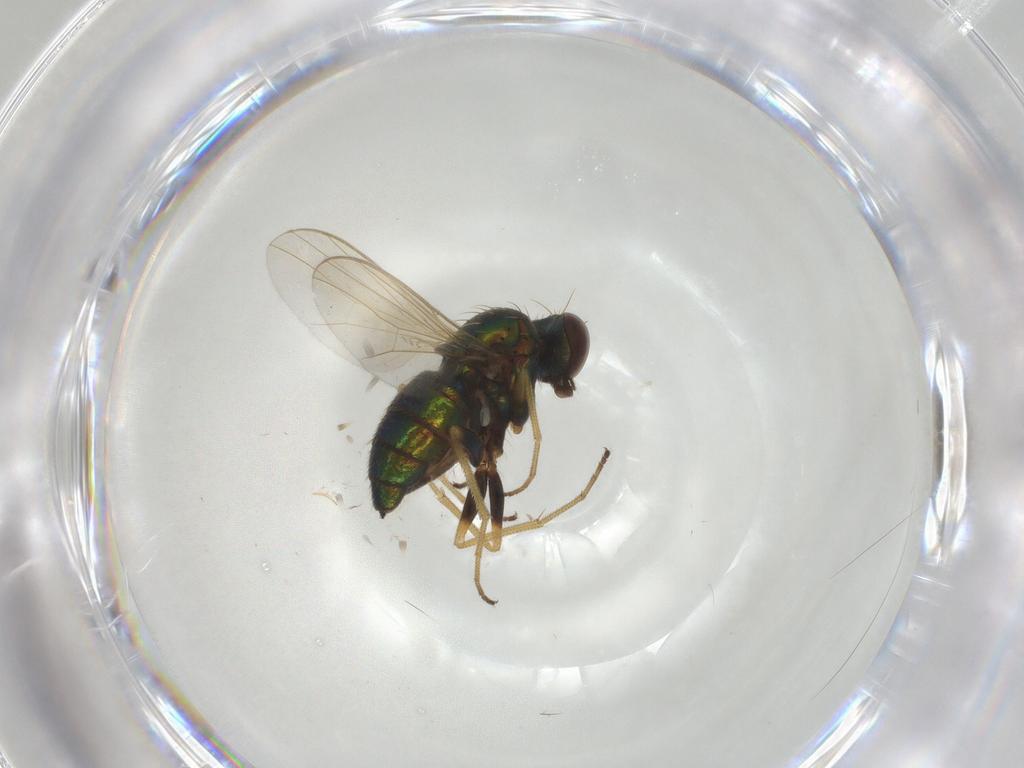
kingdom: Animalia
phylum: Arthropoda
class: Insecta
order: Diptera
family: Dolichopodidae
